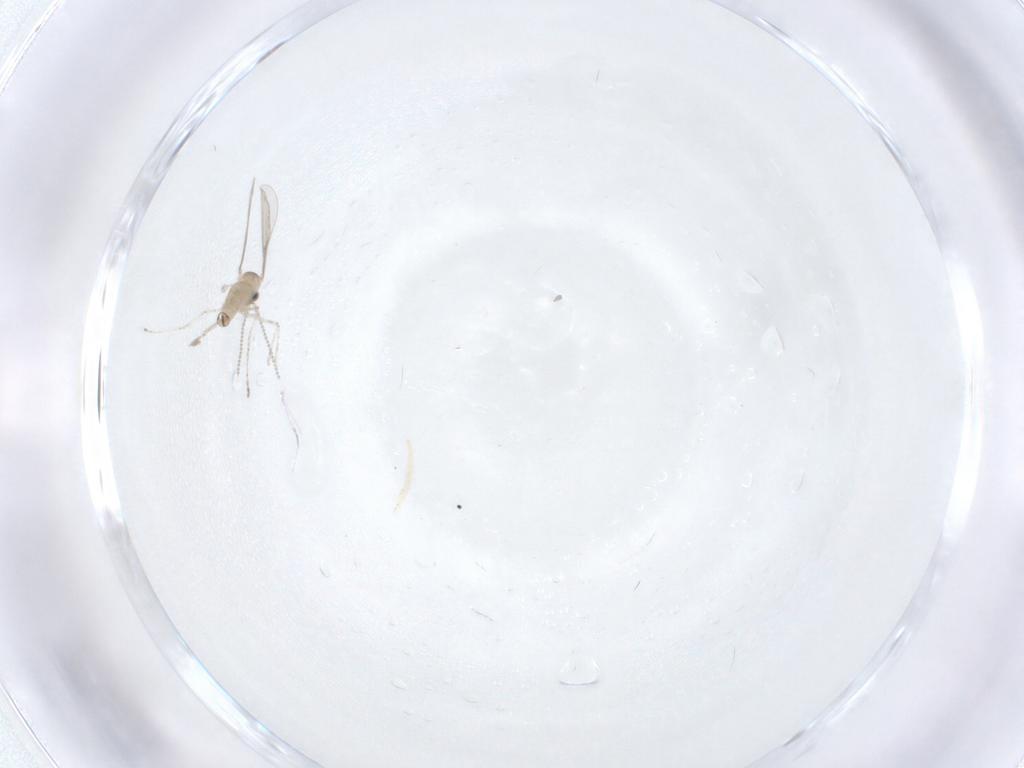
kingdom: Animalia
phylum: Arthropoda
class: Insecta
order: Diptera
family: Cecidomyiidae
